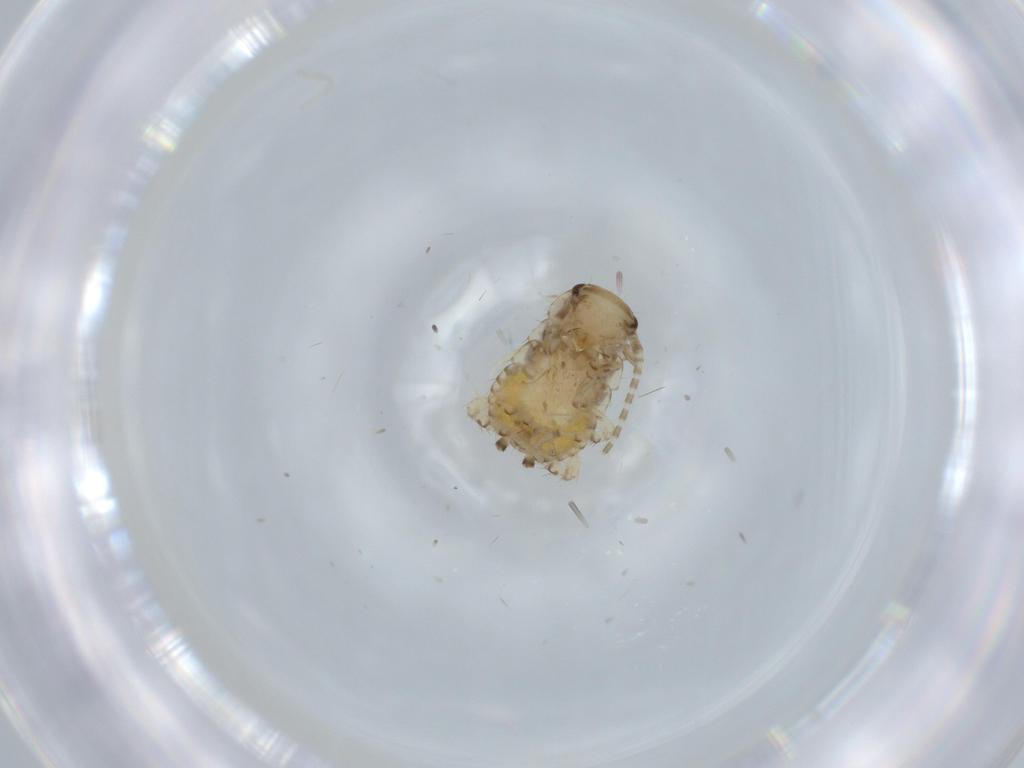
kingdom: Animalia
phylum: Arthropoda
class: Insecta
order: Blattodea
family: Ectobiidae
